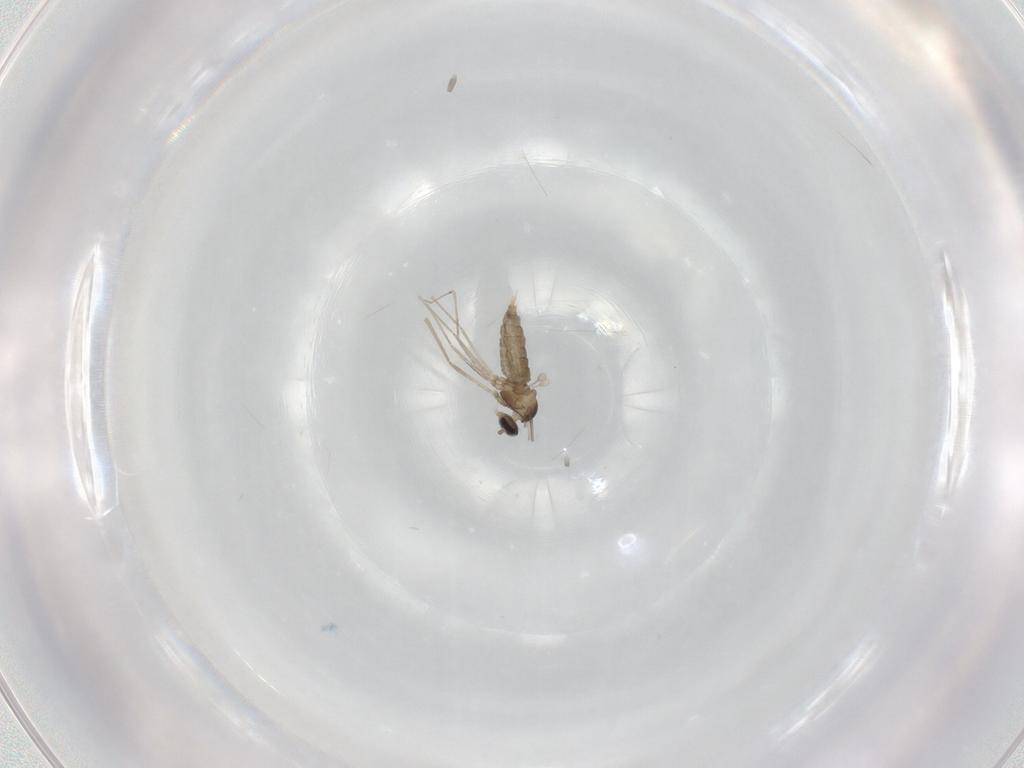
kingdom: Animalia
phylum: Arthropoda
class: Insecta
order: Diptera
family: Cecidomyiidae
